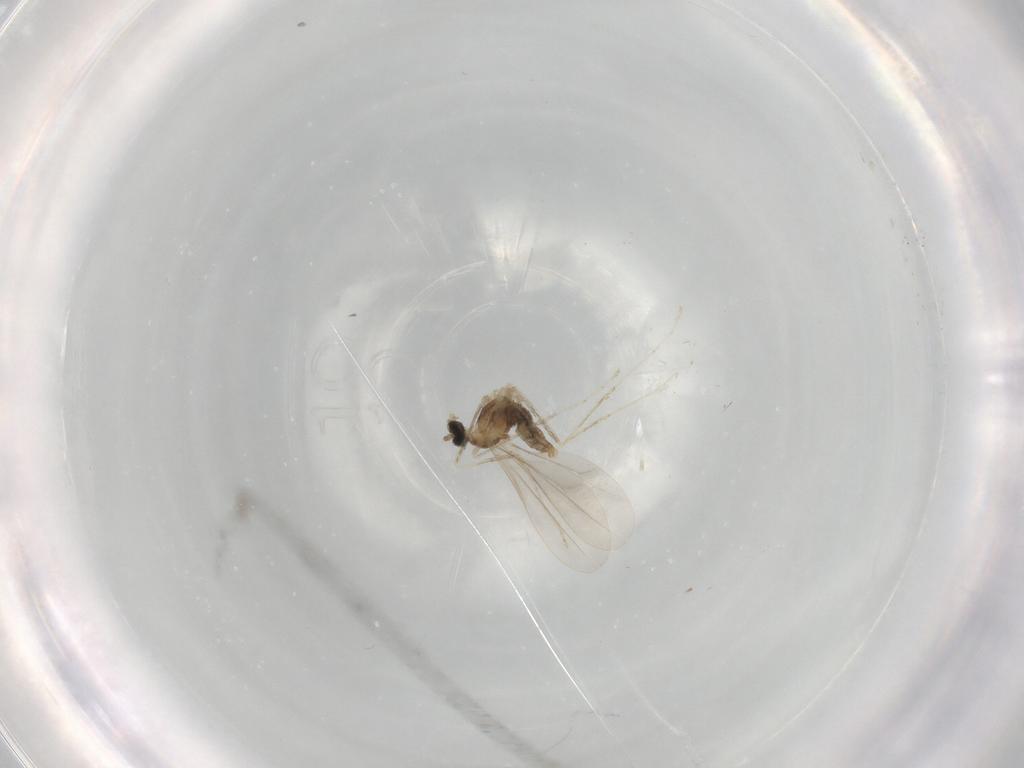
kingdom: Animalia
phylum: Arthropoda
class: Insecta
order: Diptera
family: Cecidomyiidae
